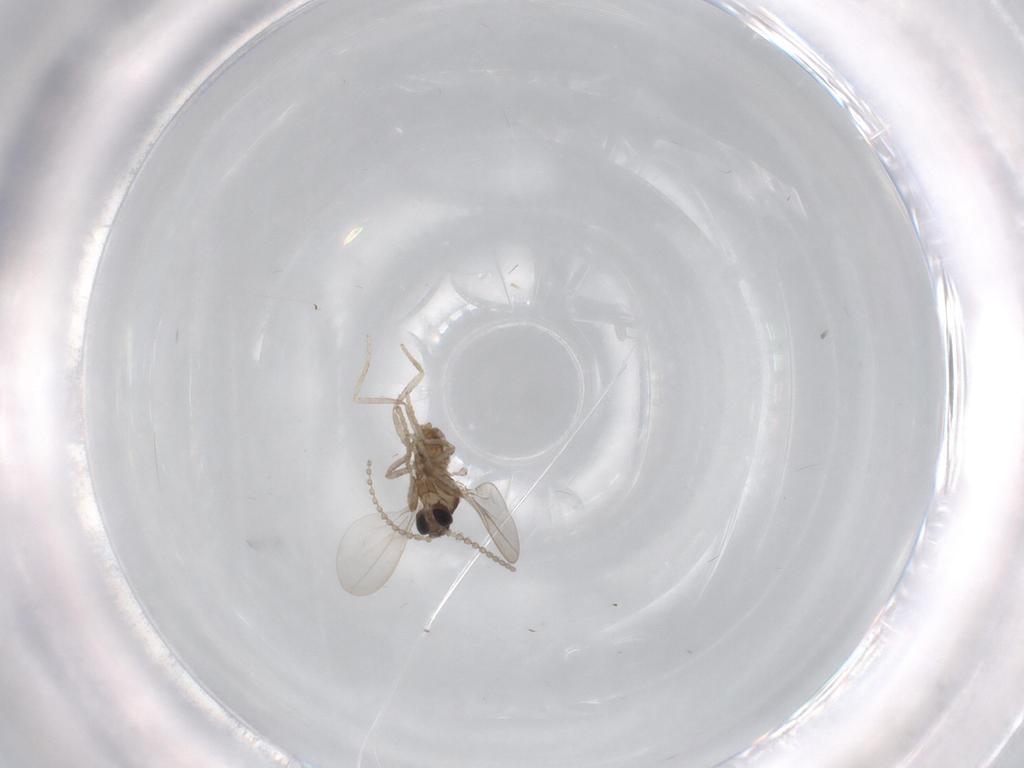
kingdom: Animalia
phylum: Arthropoda
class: Insecta
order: Diptera
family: Cecidomyiidae
